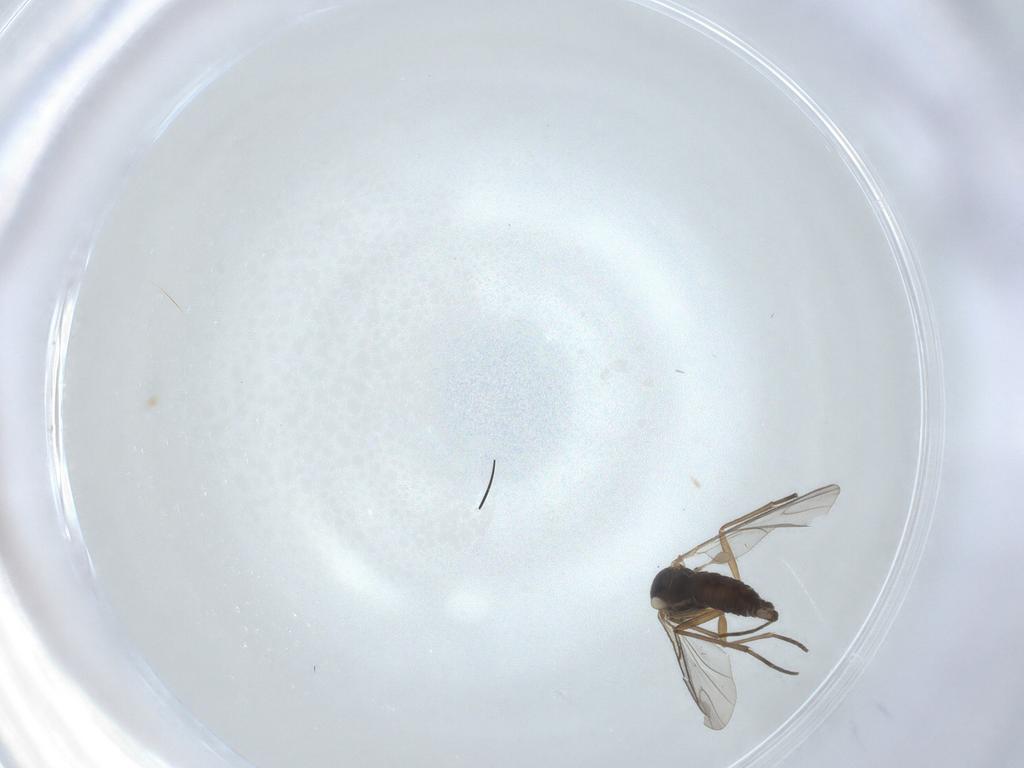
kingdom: Animalia
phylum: Arthropoda
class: Insecta
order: Diptera
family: Sciaridae
